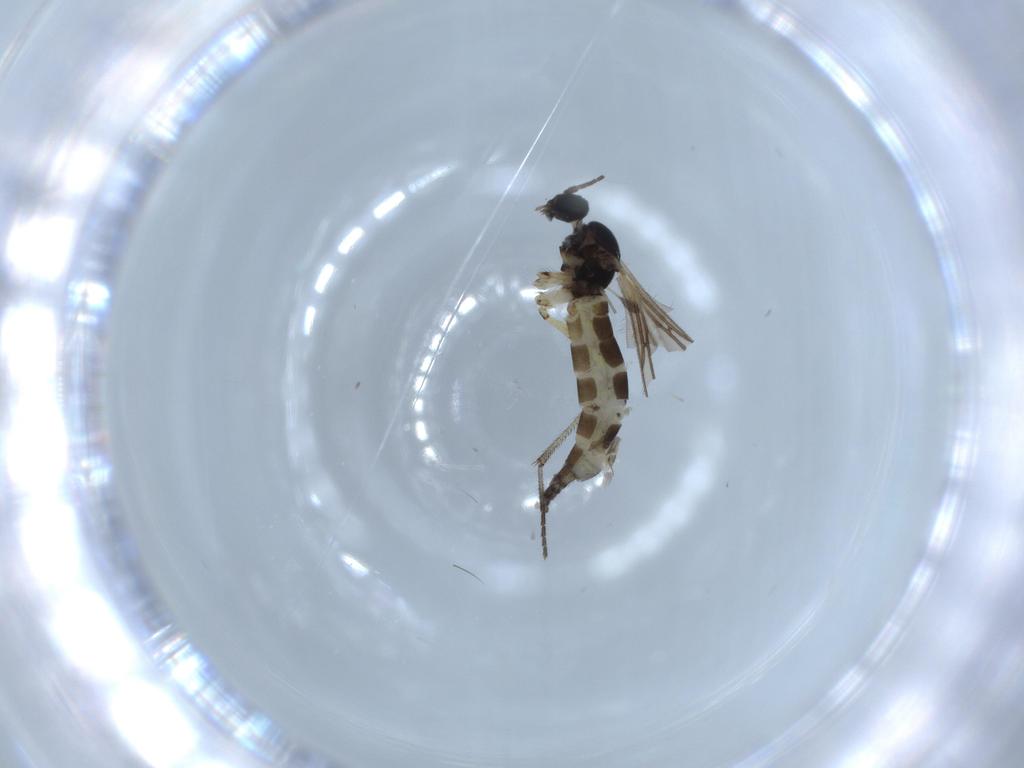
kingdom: Animalia
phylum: Arthropoda
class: Insecta
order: Diptera
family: Sciaridae
